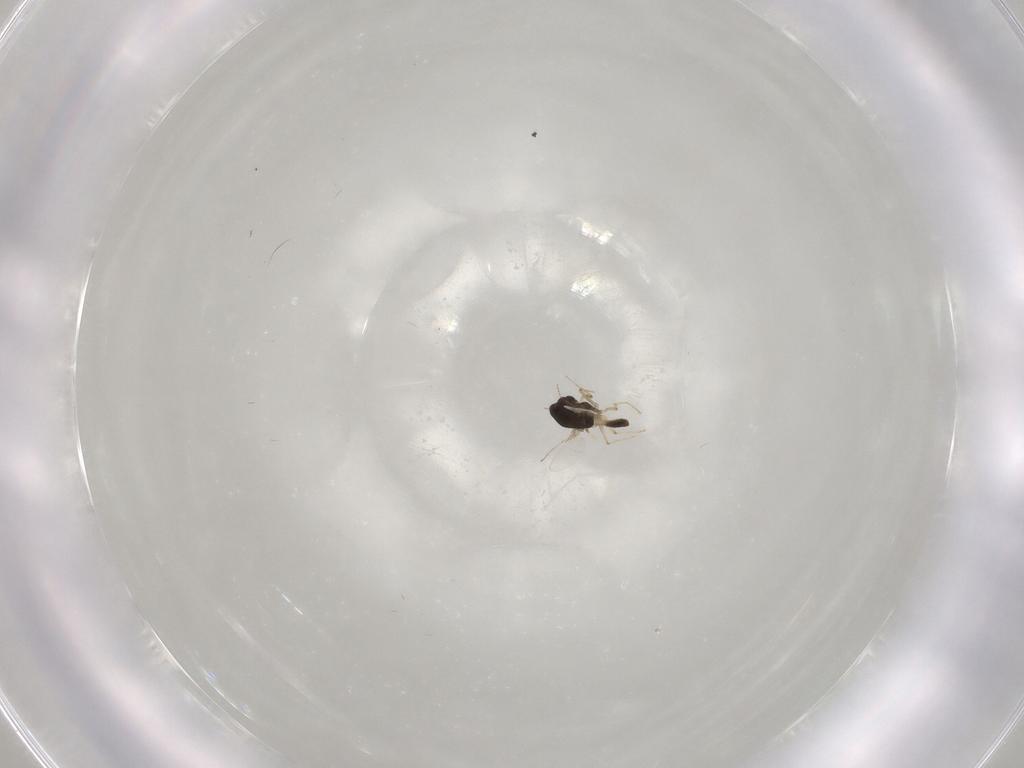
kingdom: Animalia
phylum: Arthropoda
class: Insecta
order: Diptera
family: Chironomidae
